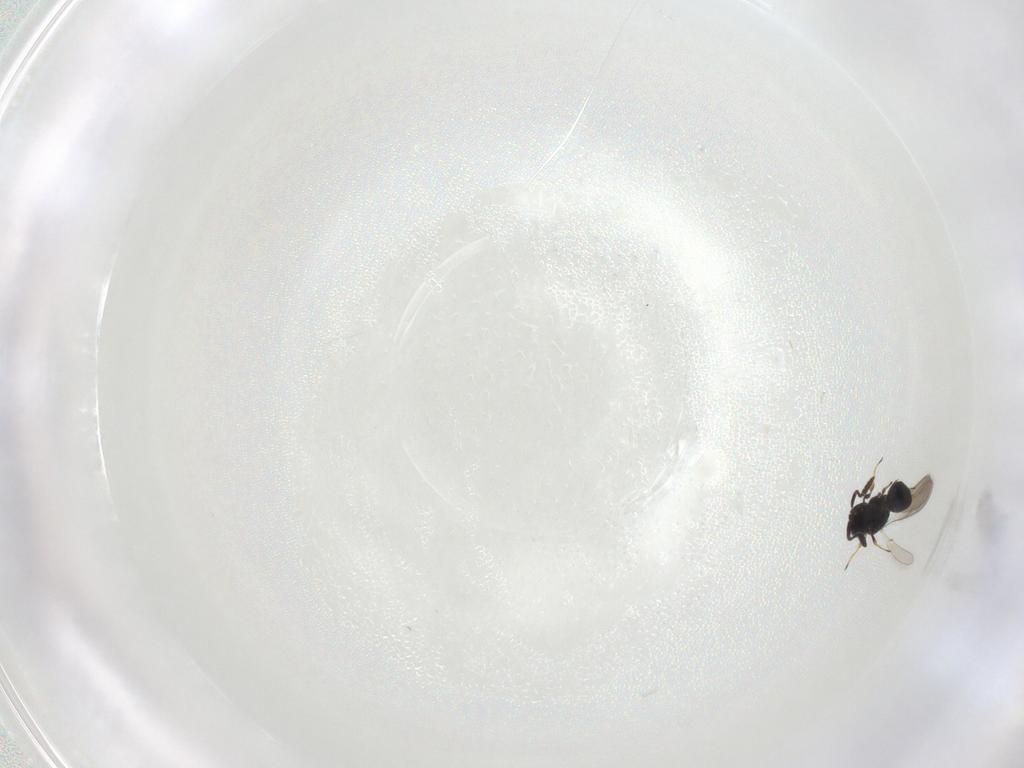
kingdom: Animalia
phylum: Arthropoda
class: Insecta
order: Hymenoptera
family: Scelionidae
